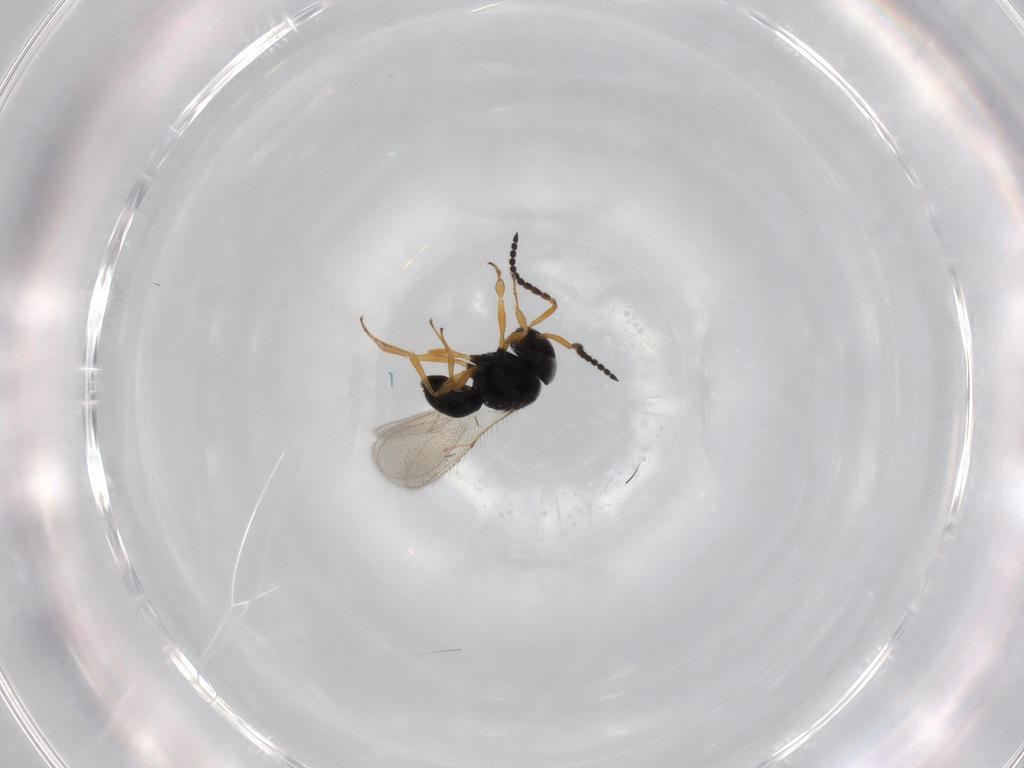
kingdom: Animalia
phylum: Arthropoda
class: Insecta
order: Hymenoptera
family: Scelionidae
